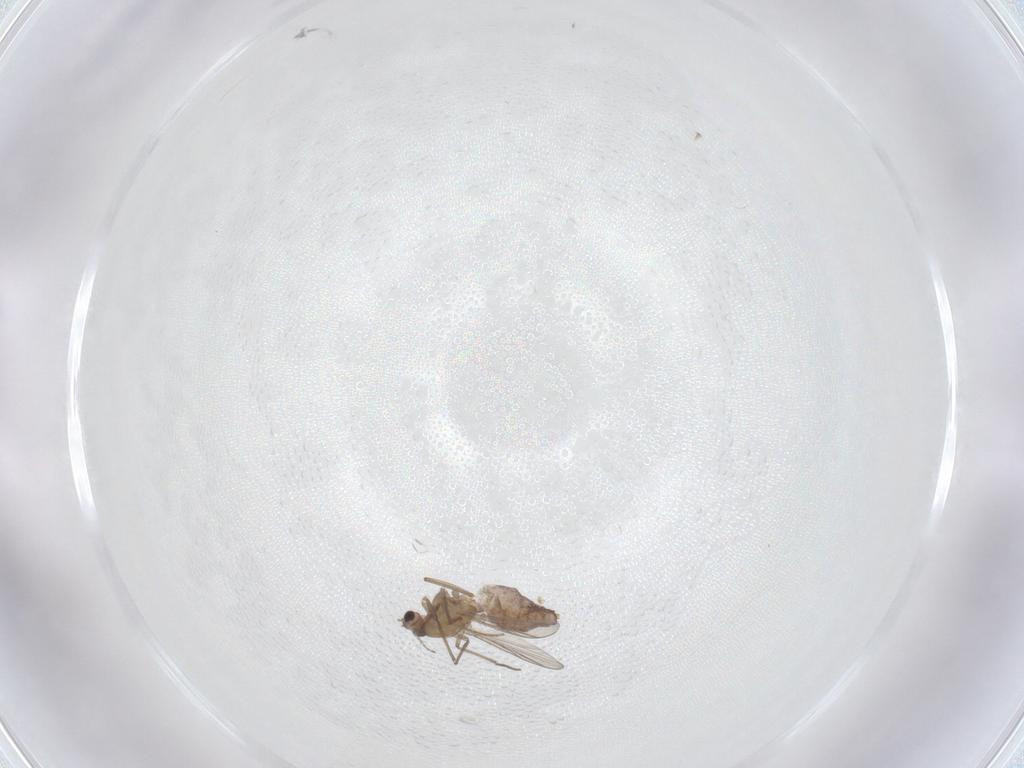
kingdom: Animalia
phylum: Arthropoda
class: Insecta
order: Diptera
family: Chironomidae
